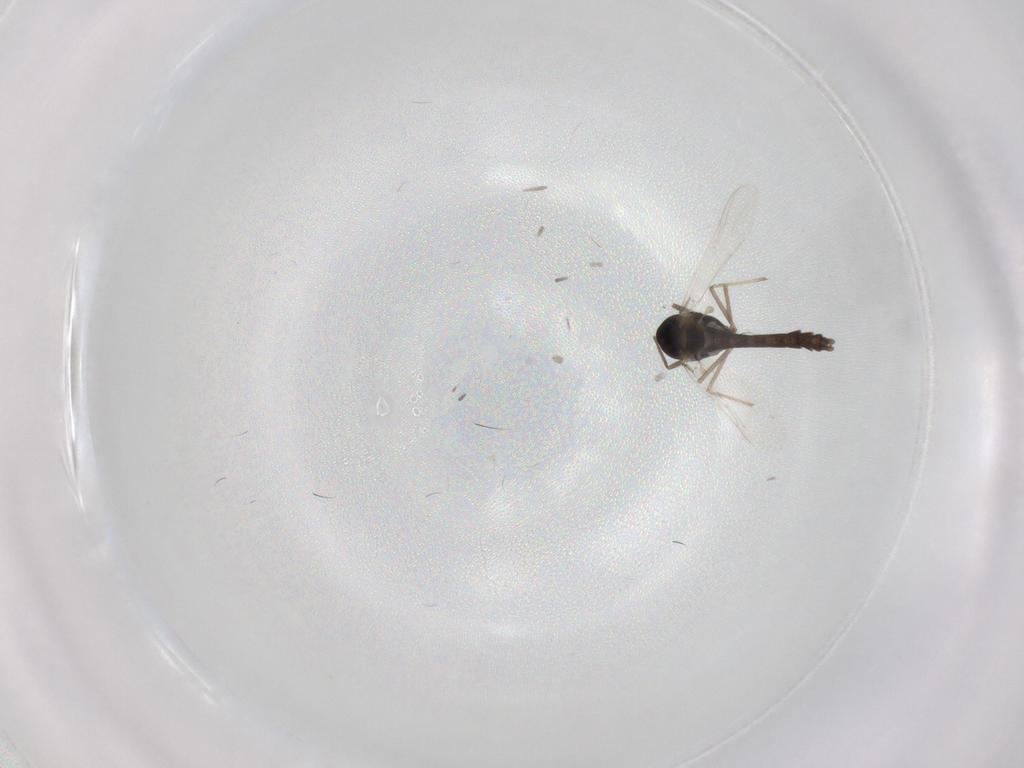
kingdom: Animalia
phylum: Arthropoda
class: Insecta
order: Diptera
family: Chironomidae
